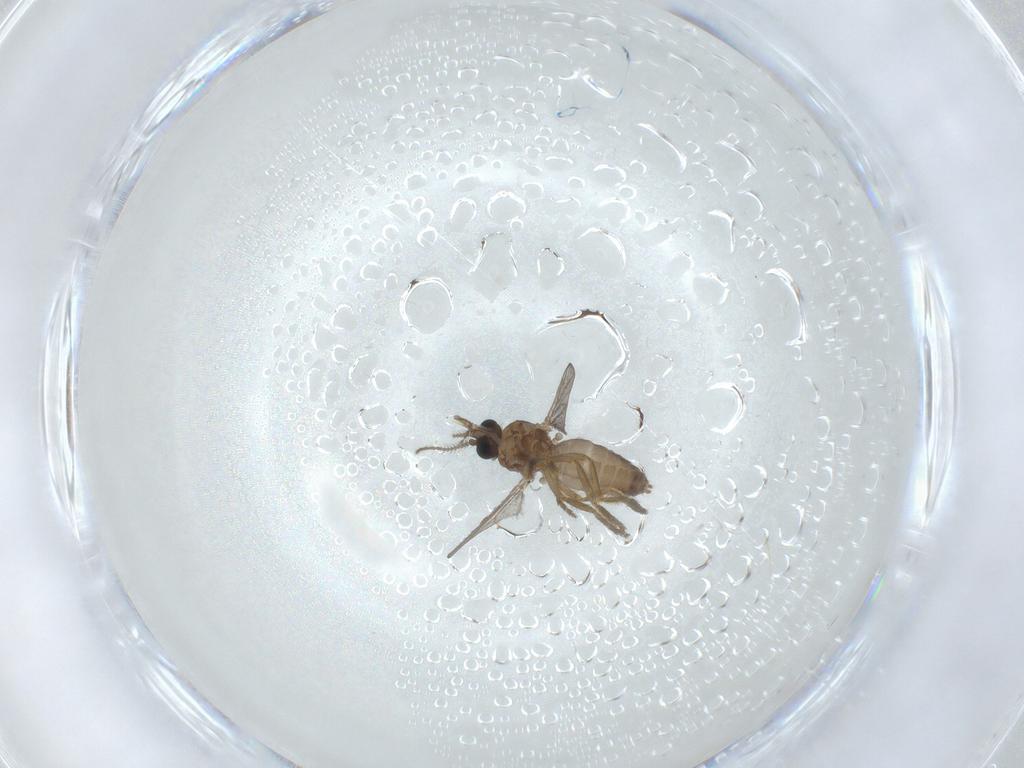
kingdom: Animalia
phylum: Arthropoda
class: Insecta
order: Diptera
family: Ceratopogonidae
